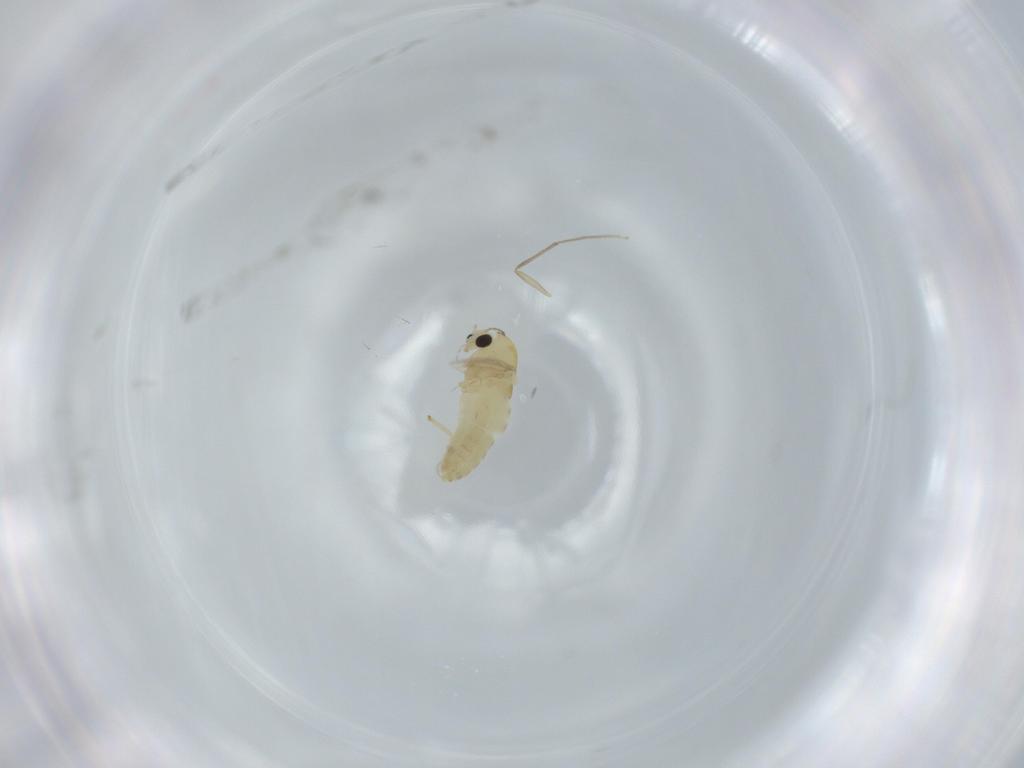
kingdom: Animalia
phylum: Arthropoda
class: Insecta
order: Diptera
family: Chironomidae
